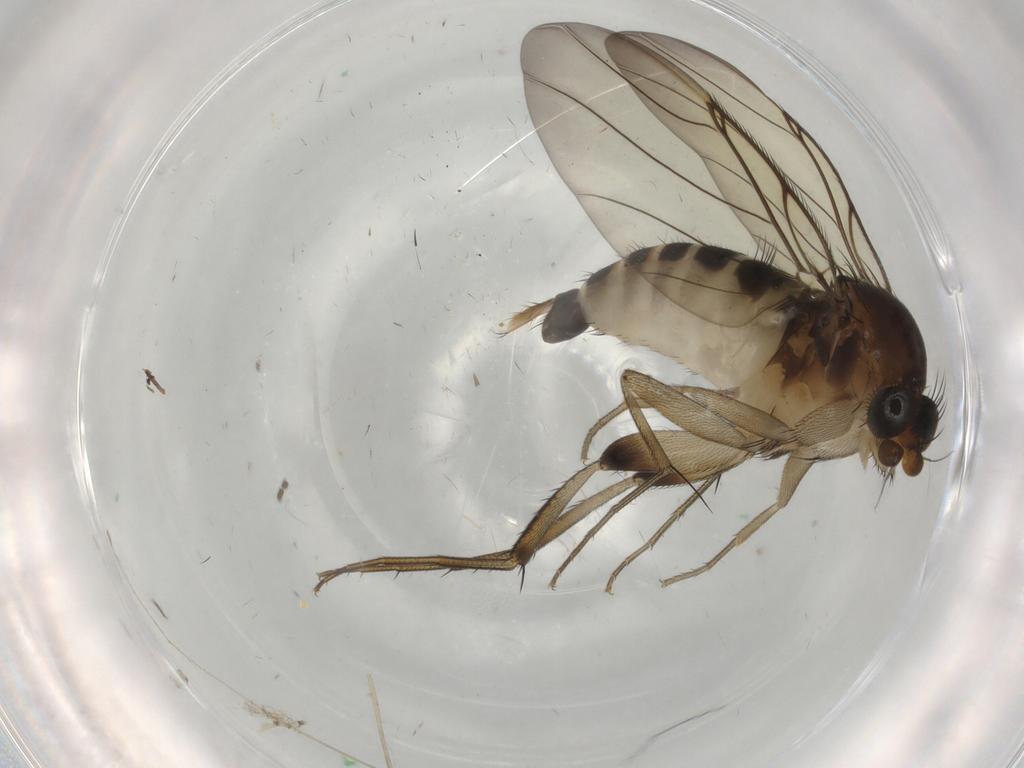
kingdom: Animalia
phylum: Arthropoda
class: Insecta
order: Diptera
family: Phoridae
